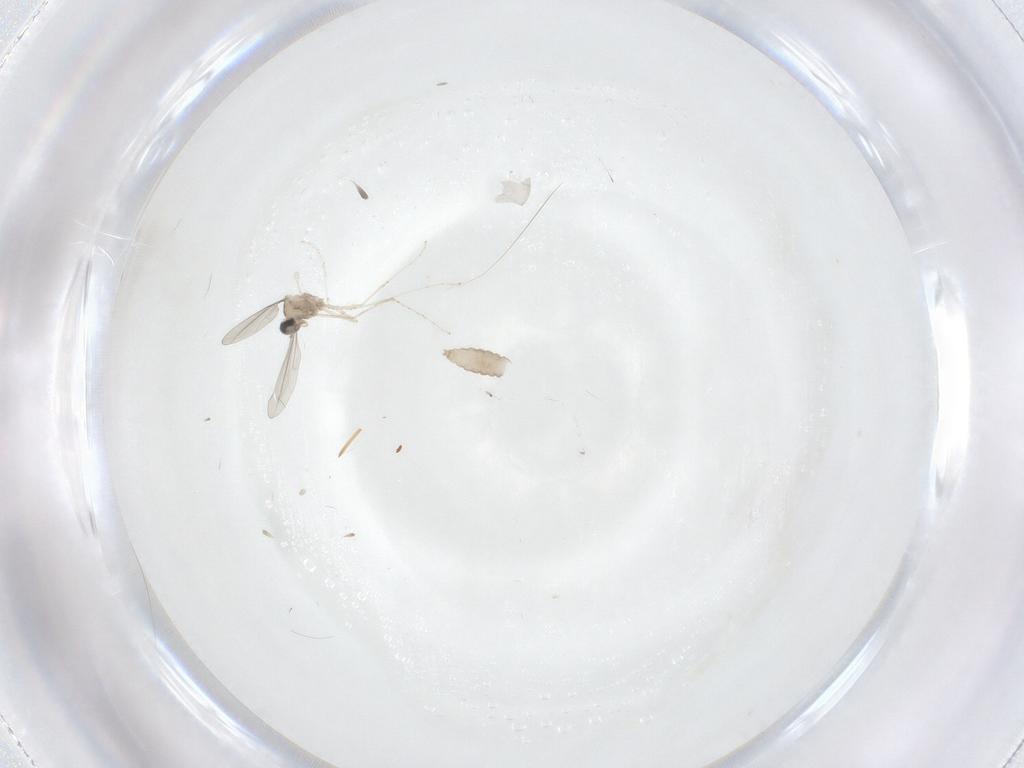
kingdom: Animalia
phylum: Arthropoda
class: Insecta
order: Diptera
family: Cecidomyiidae
